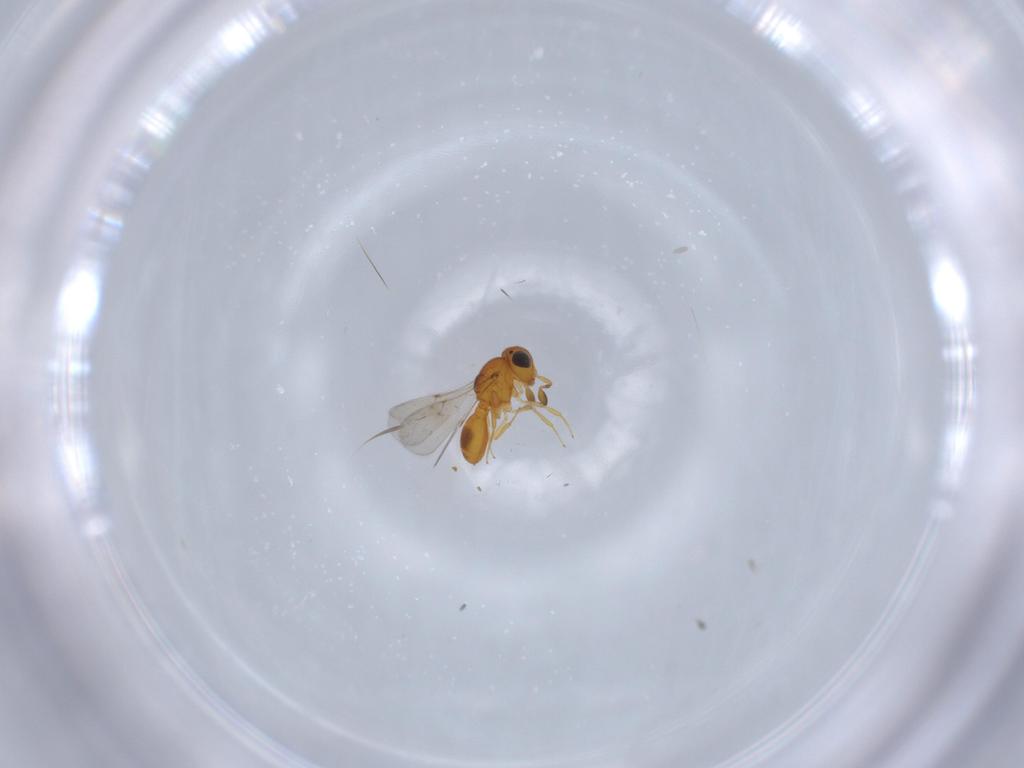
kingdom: Animalia
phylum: Arthropoda
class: Insecta
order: Hymenoptera
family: Scelionidae
